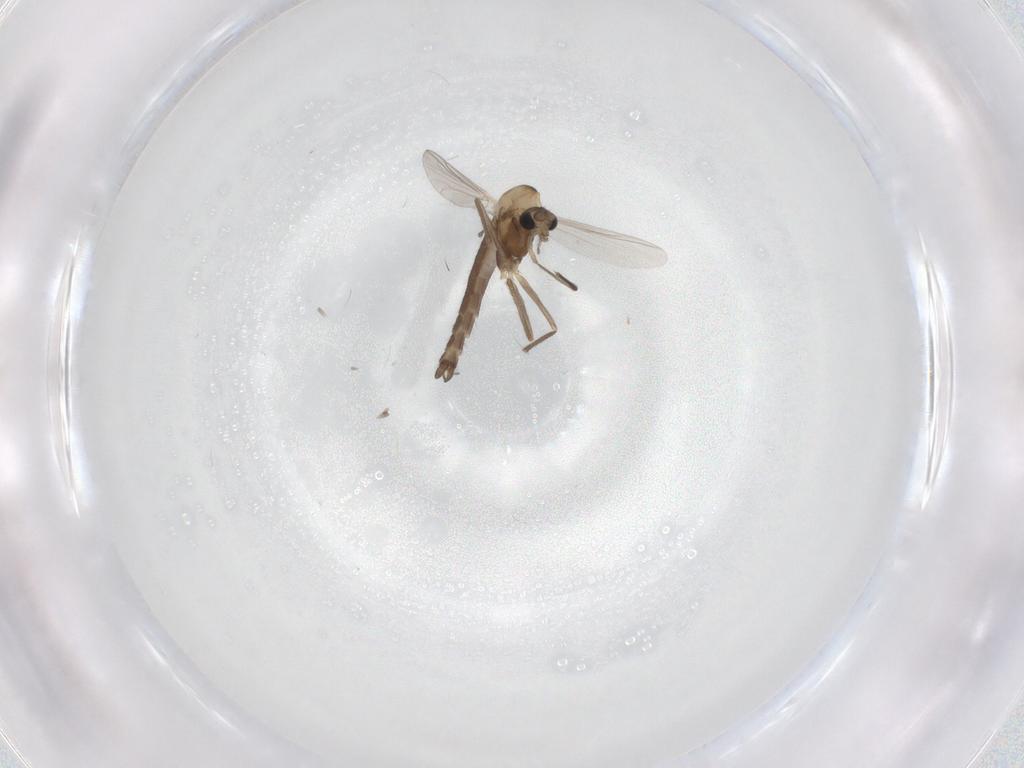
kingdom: Animalia
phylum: Arthropoda
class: Insecta
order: Diptera
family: Chironomidae
